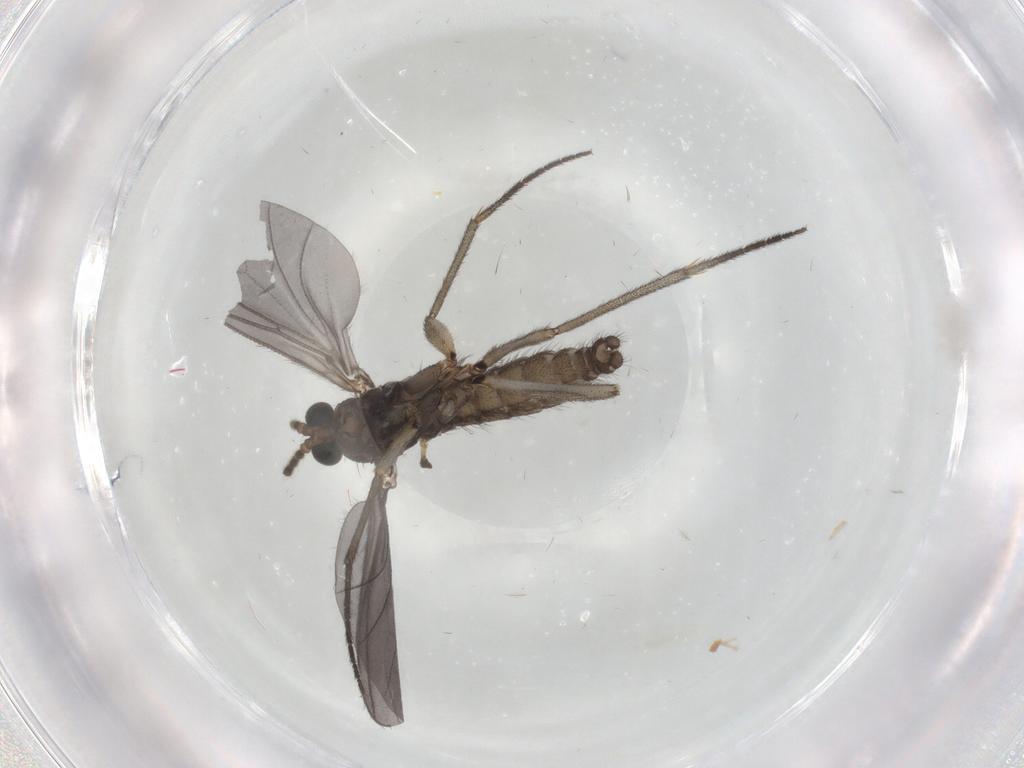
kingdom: Animalia
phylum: Arthropoda
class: Insecta
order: Diptera
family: Sciaridae
